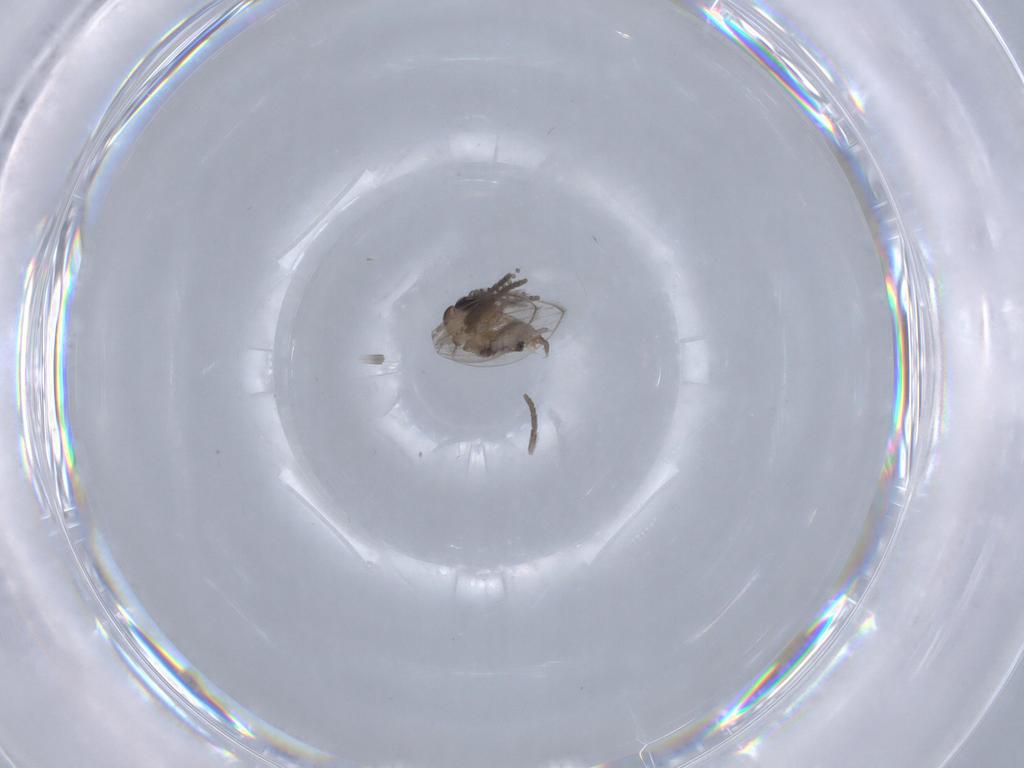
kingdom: Animalia
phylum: Arthropoda
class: Insecta
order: Diptera
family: Psychodidae
